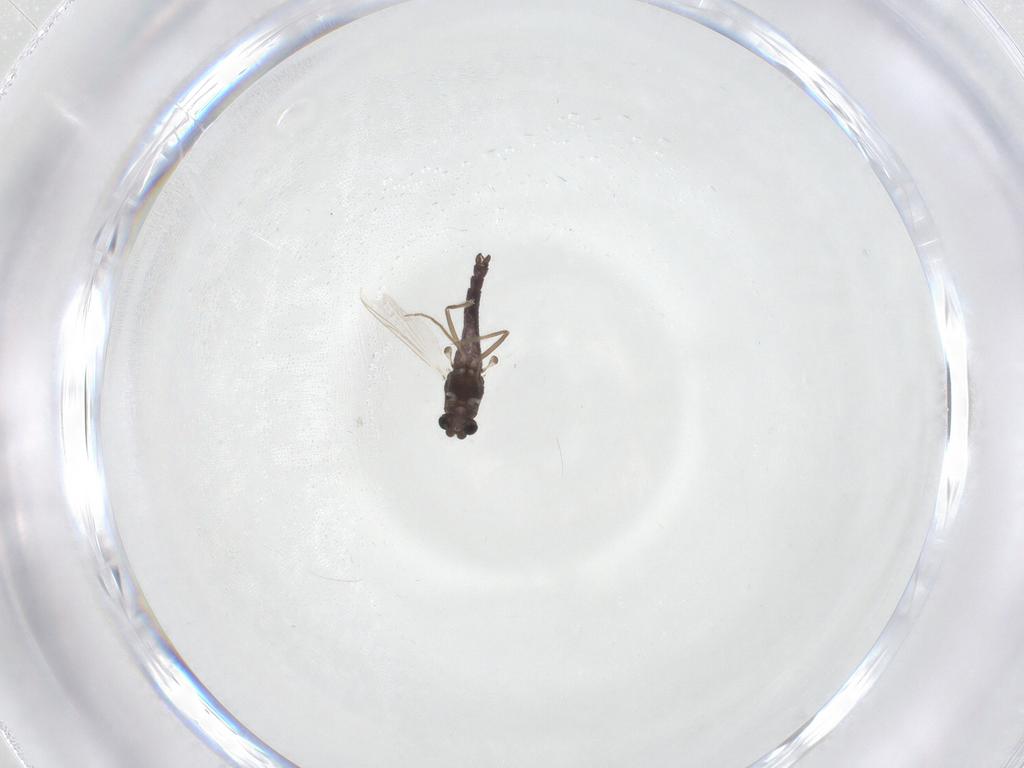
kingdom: Animalia
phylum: Arthropoda
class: Insecta
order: Diptera
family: Chironomidae
